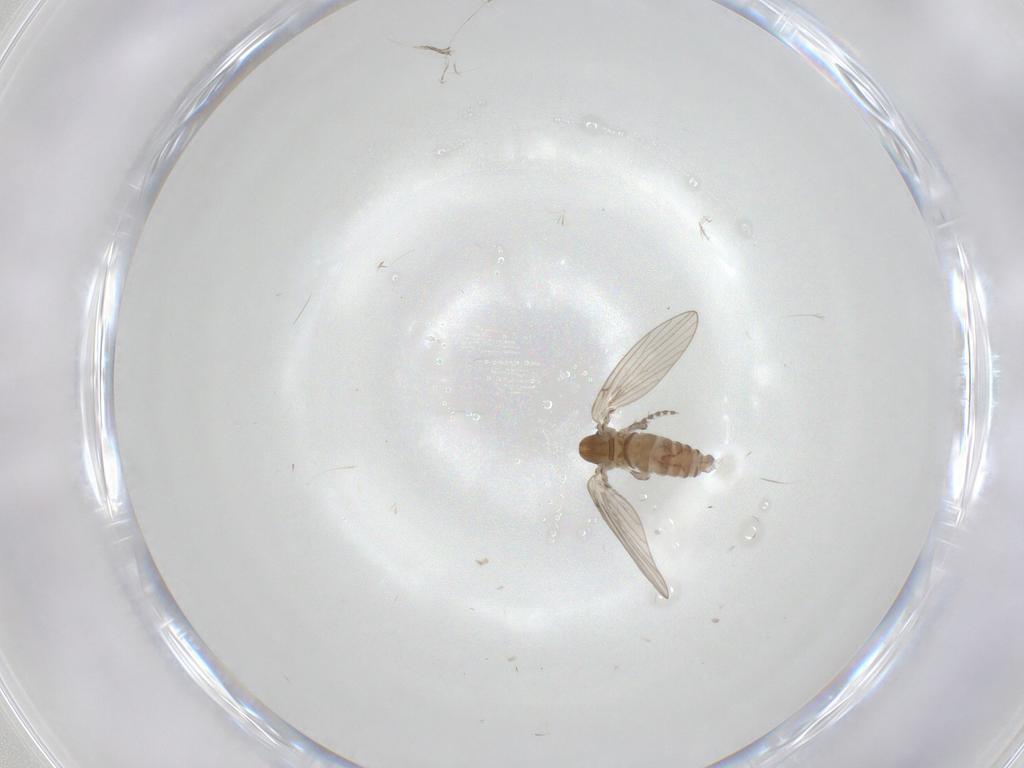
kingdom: Animalia
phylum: Arthropoda
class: Insecta
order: Diptera
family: Psychodidae
